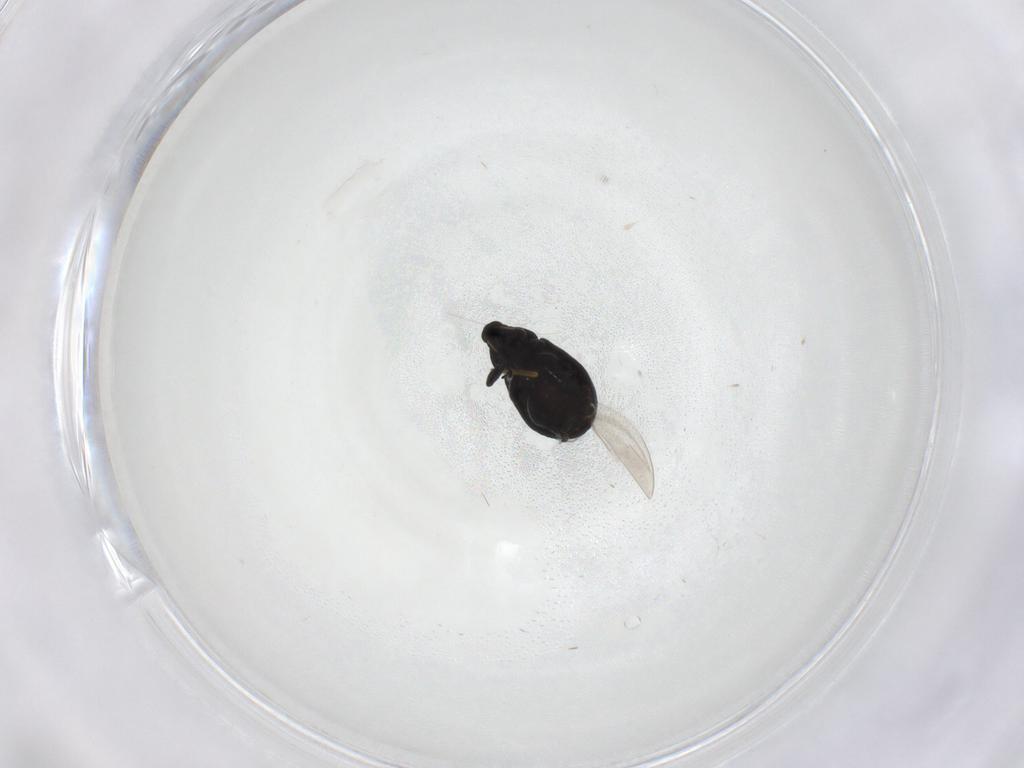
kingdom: Animalia
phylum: Arthropoda
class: Insecta
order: Coleoptera
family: Curculionidae
